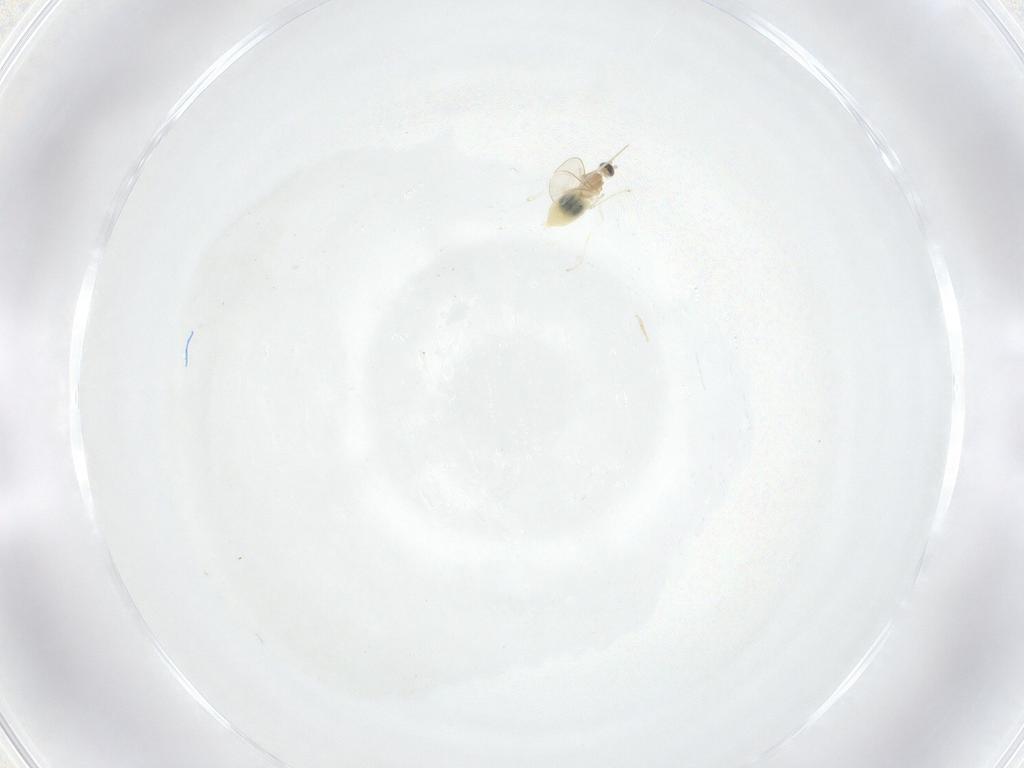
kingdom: Animalia
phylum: Arthropoda
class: Insecta
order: Diptera
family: Cecidomyiidae
